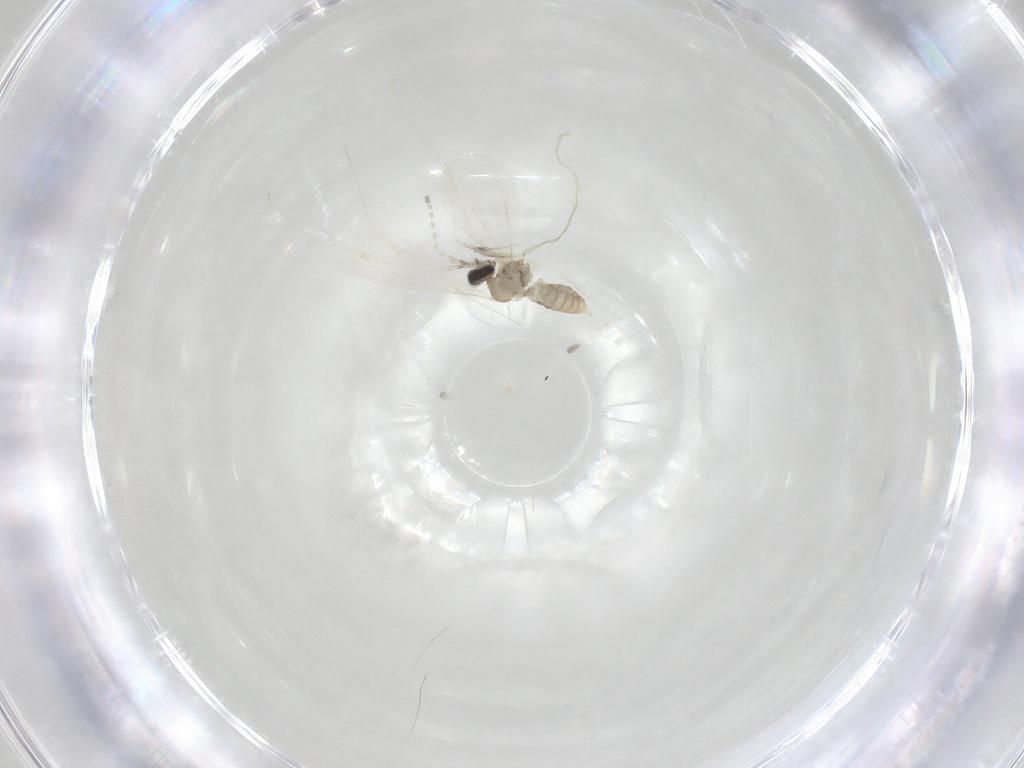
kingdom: Animalia
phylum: Arthropoda
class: Insecta
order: Diptera
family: Cecidomyiidae
